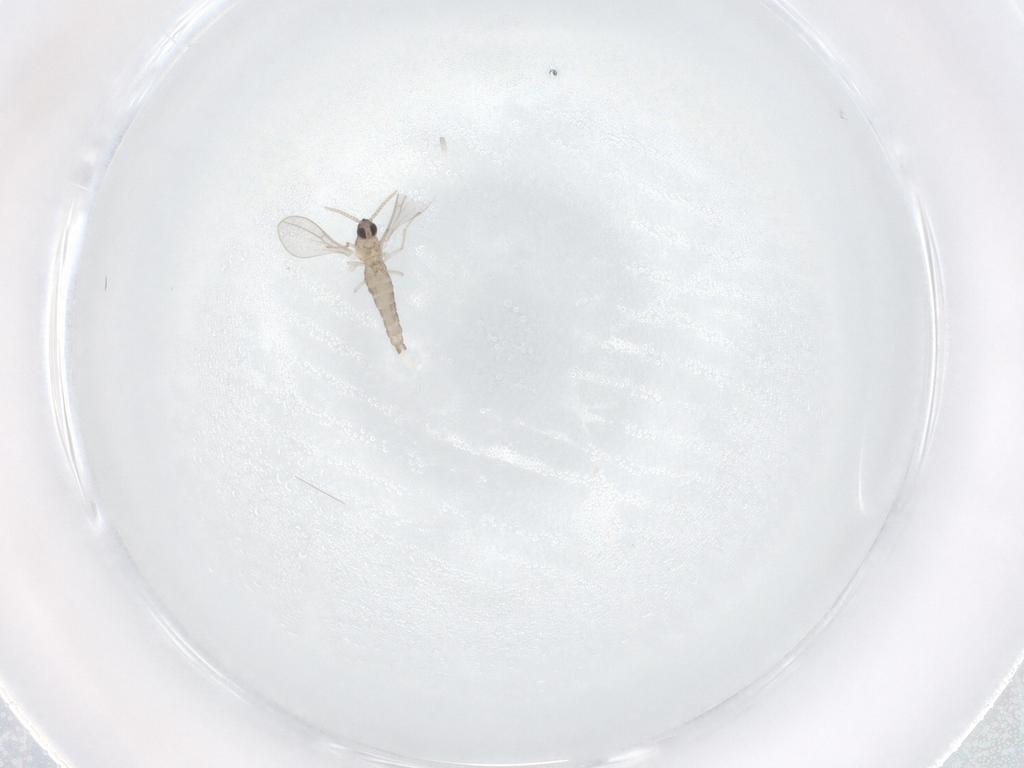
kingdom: Animalia
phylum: Arthropoda
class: Insecta
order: Diptera
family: Cecidomyiidae
